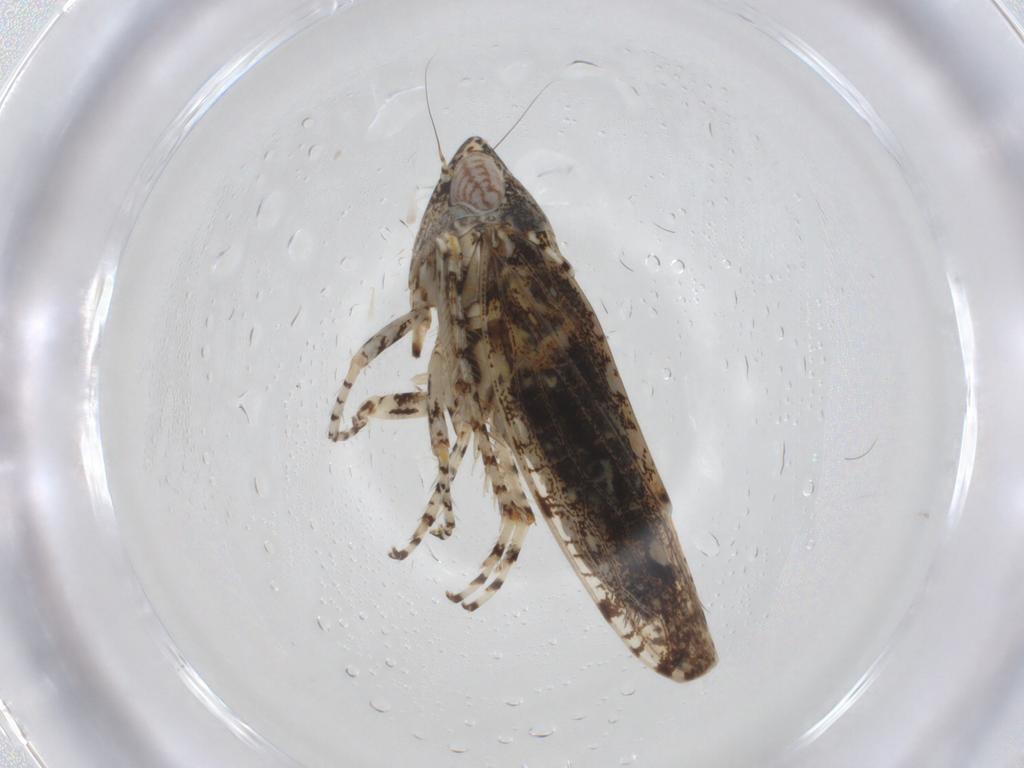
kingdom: Animalia
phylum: Arthropoda
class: Insecta
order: Hemiptera
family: Cicadellidae
